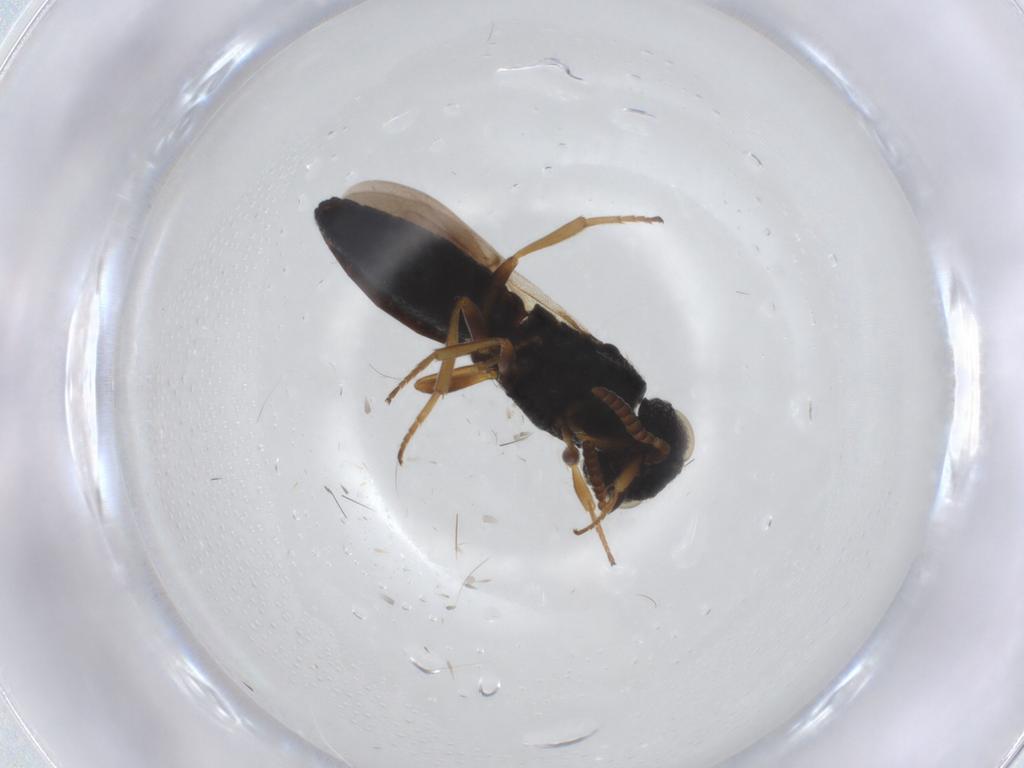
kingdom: Animalia
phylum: Arthropoda
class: Insecta
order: Hymenoptera
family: Scelionidae
